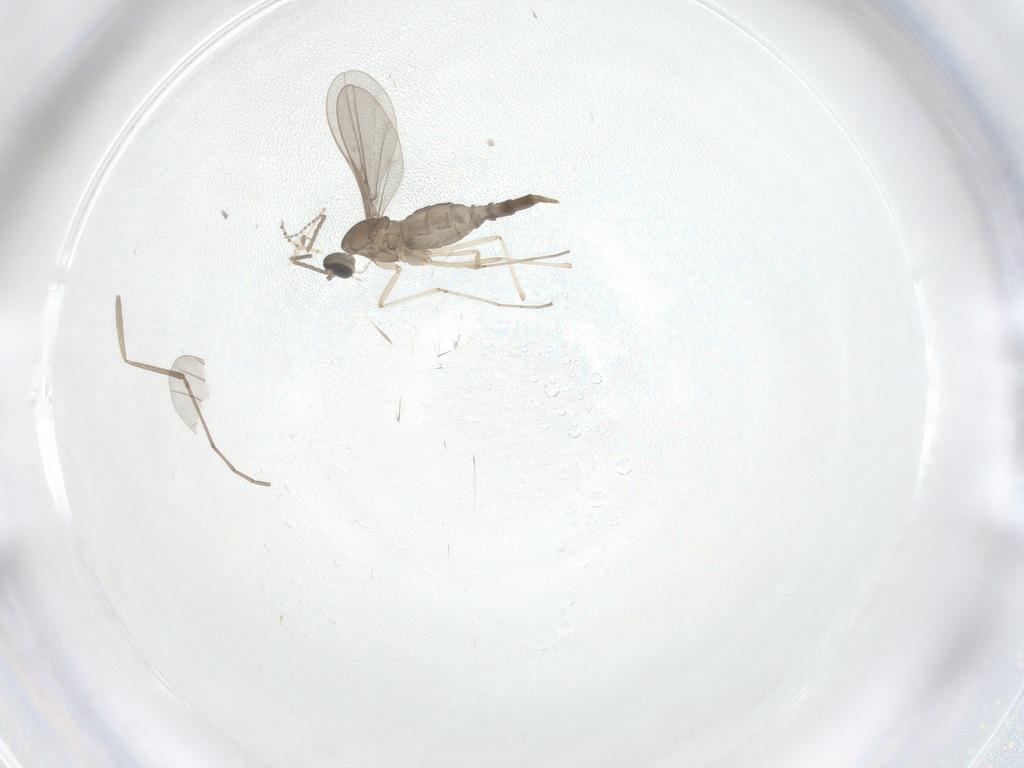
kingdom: Animalia
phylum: Arthropoda
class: Insecta
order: Diptera
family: Cecidomyiidae
